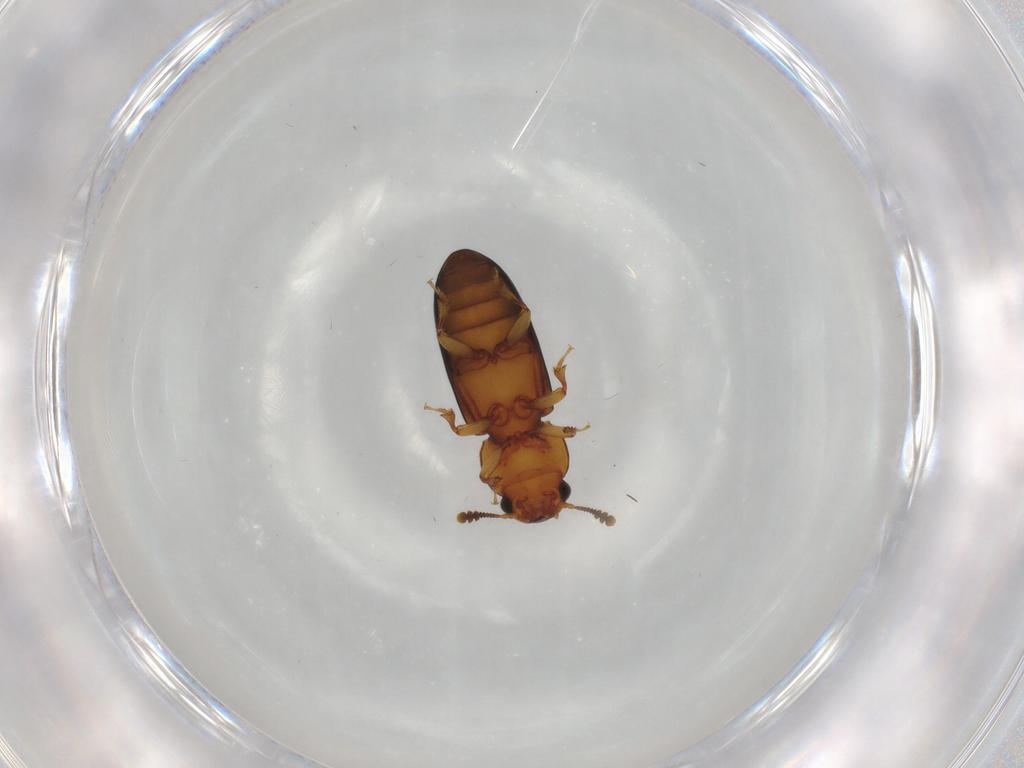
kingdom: Animalia
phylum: Arthropoda
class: Insecta
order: Coleoptera
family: Salpingidae
